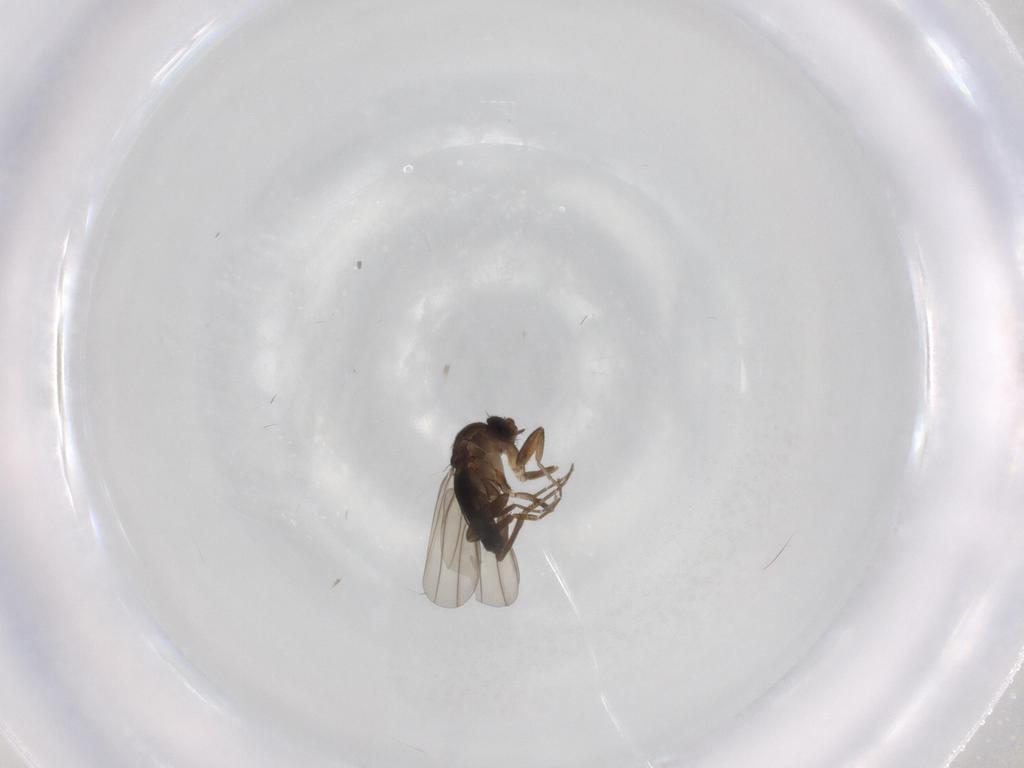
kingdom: Animalia
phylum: Arthropoda
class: Insecta
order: Diptera
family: Phoridae
